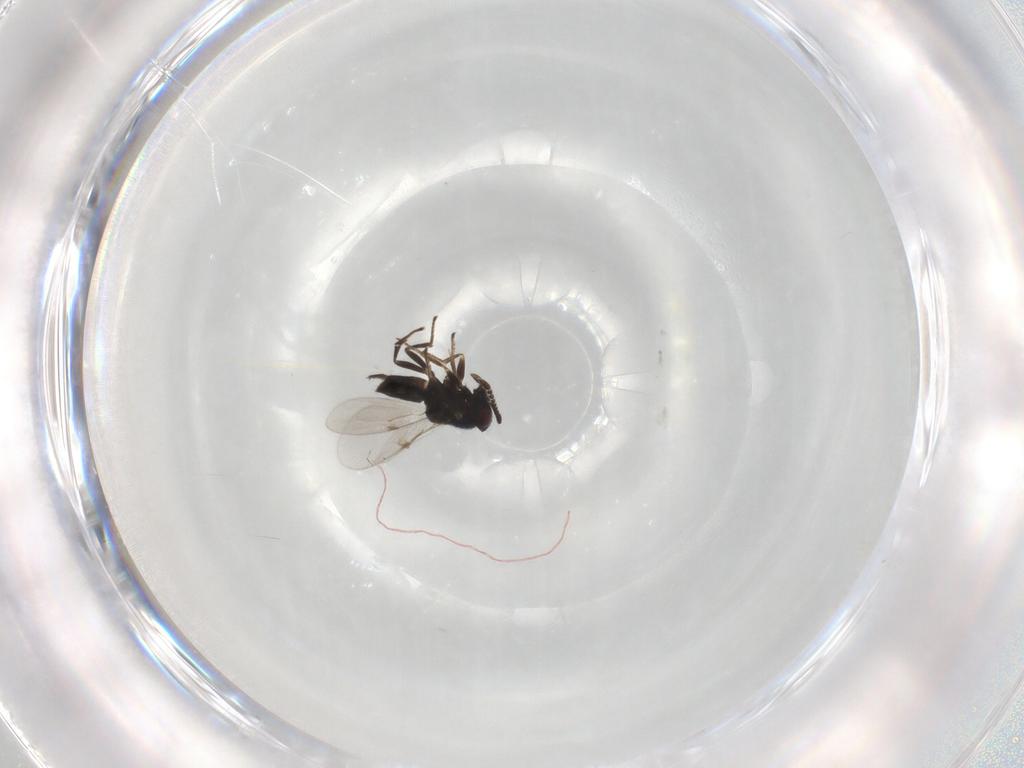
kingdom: Animalia
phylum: Arthropoda
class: Insecta
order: Hymenoptera
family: Encyrtidae
